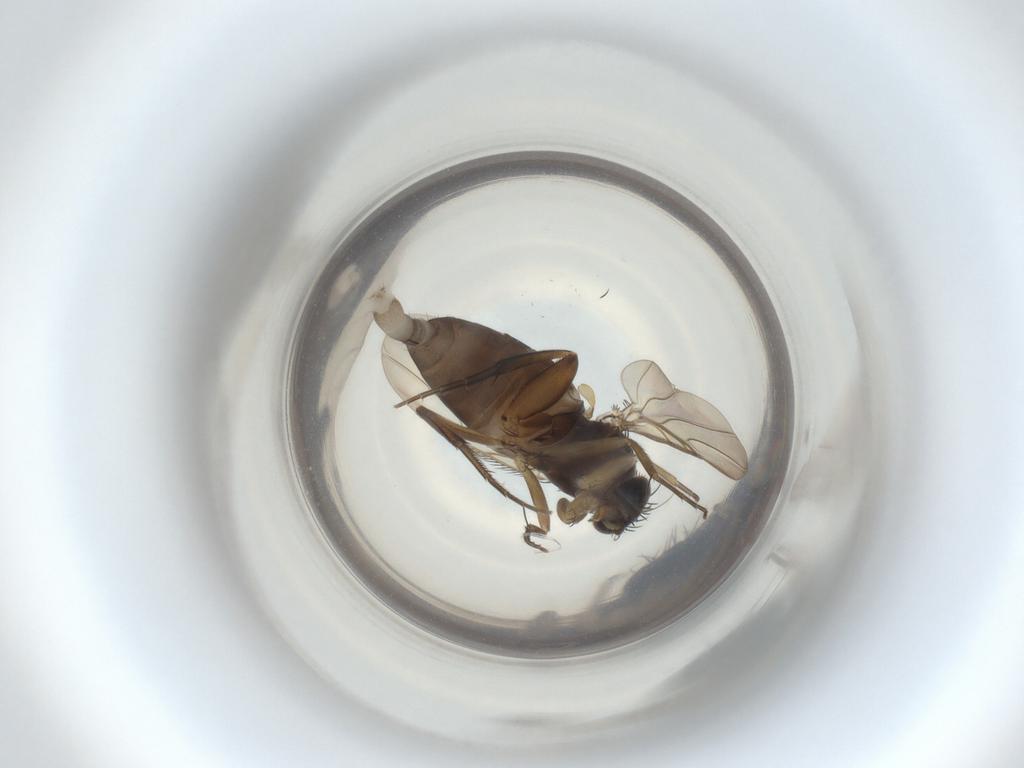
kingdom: Animalia
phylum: Arthropoda
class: Insecta
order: Diptera
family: Phoridae
